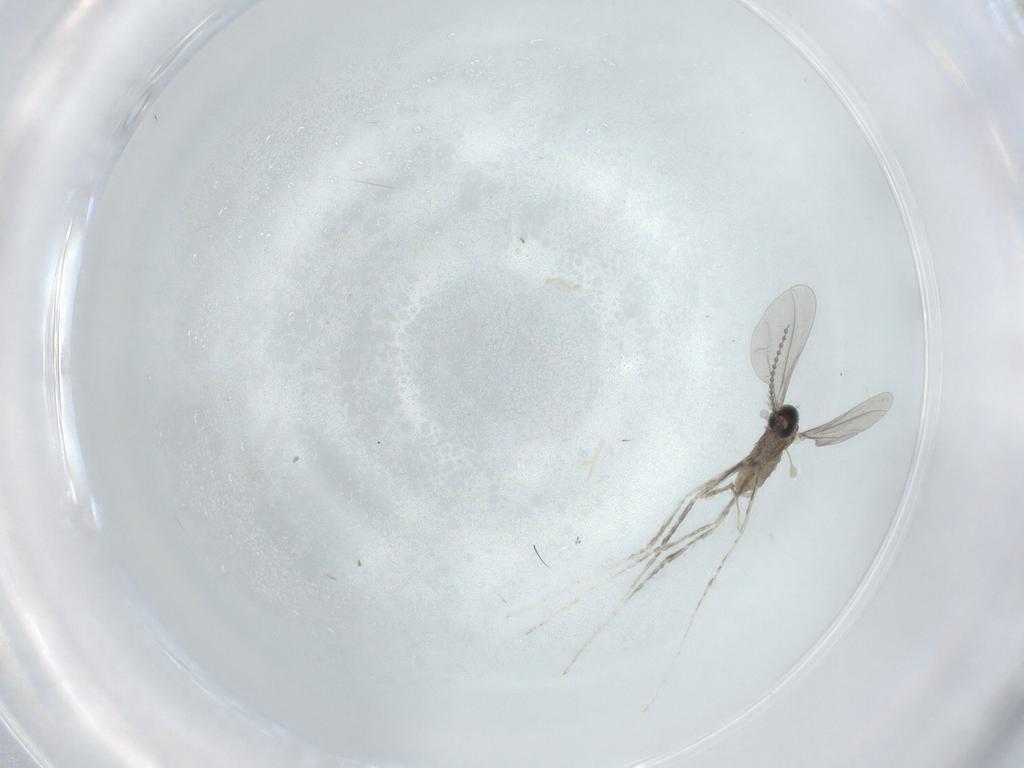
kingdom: Animalia
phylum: Arthropoda
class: Insecta
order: Diptera
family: Cecidomyiidae
